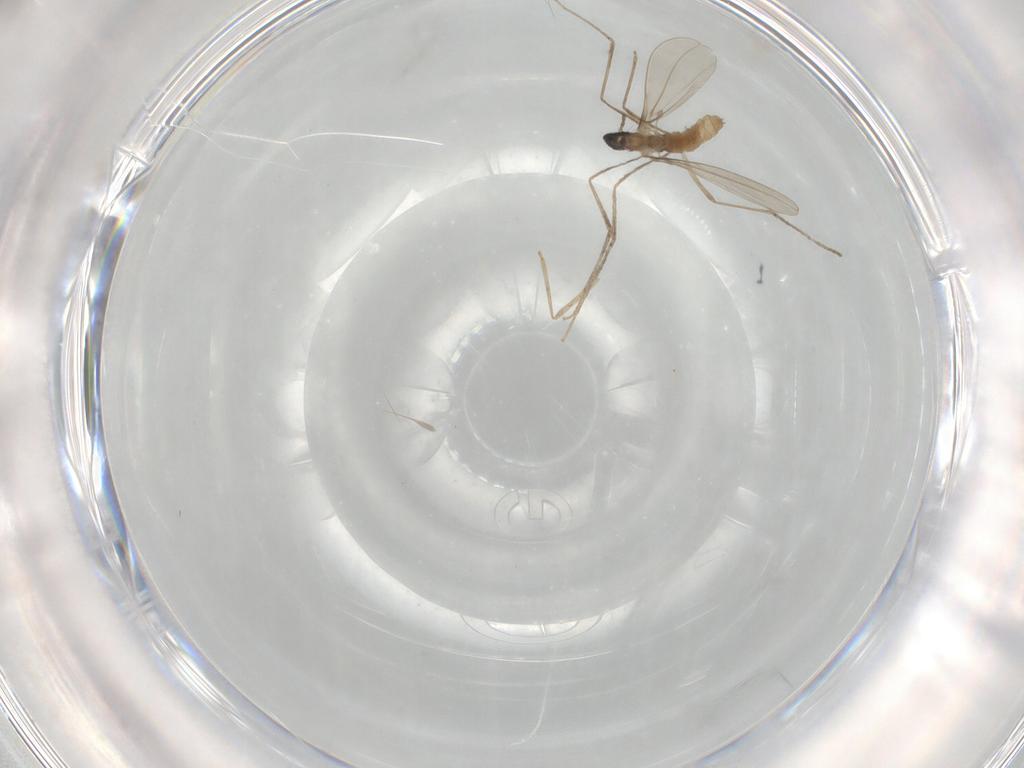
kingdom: Animalia
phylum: Arthropoda
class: Insecta
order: Diptera
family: Cecidomyiidae
